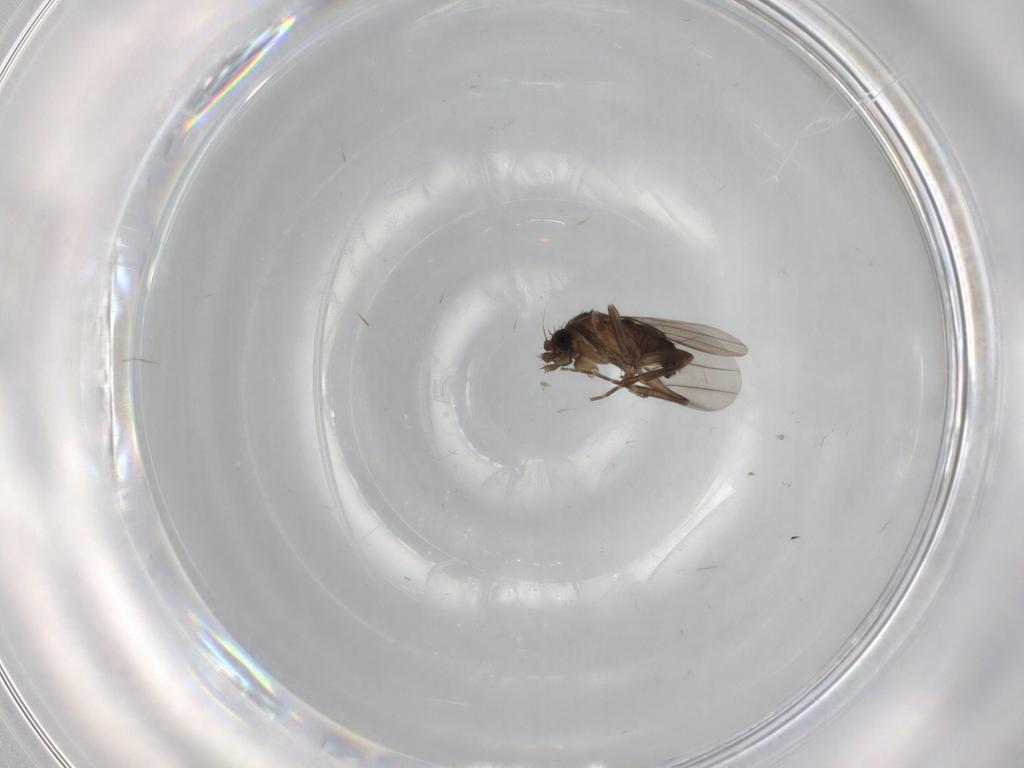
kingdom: Animalia
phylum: Arthropoda
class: Insecta
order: Diptera
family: Phoridae
